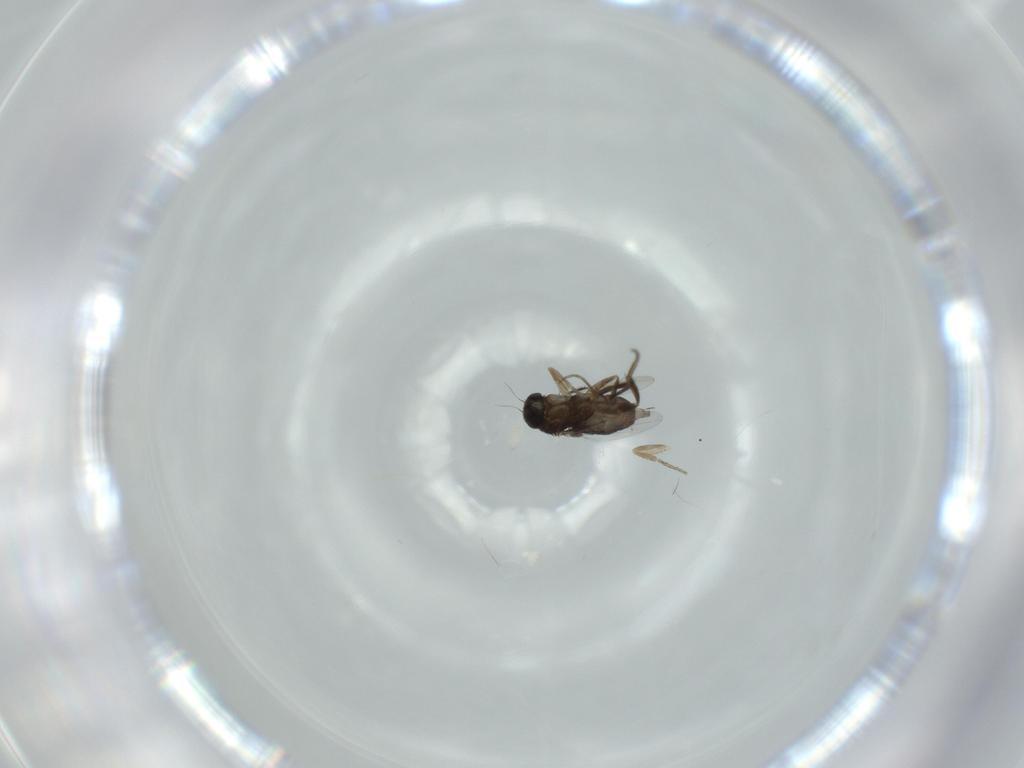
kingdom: Animalia
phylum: Arthropoda
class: Insecta
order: Diptera
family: Phoridae
